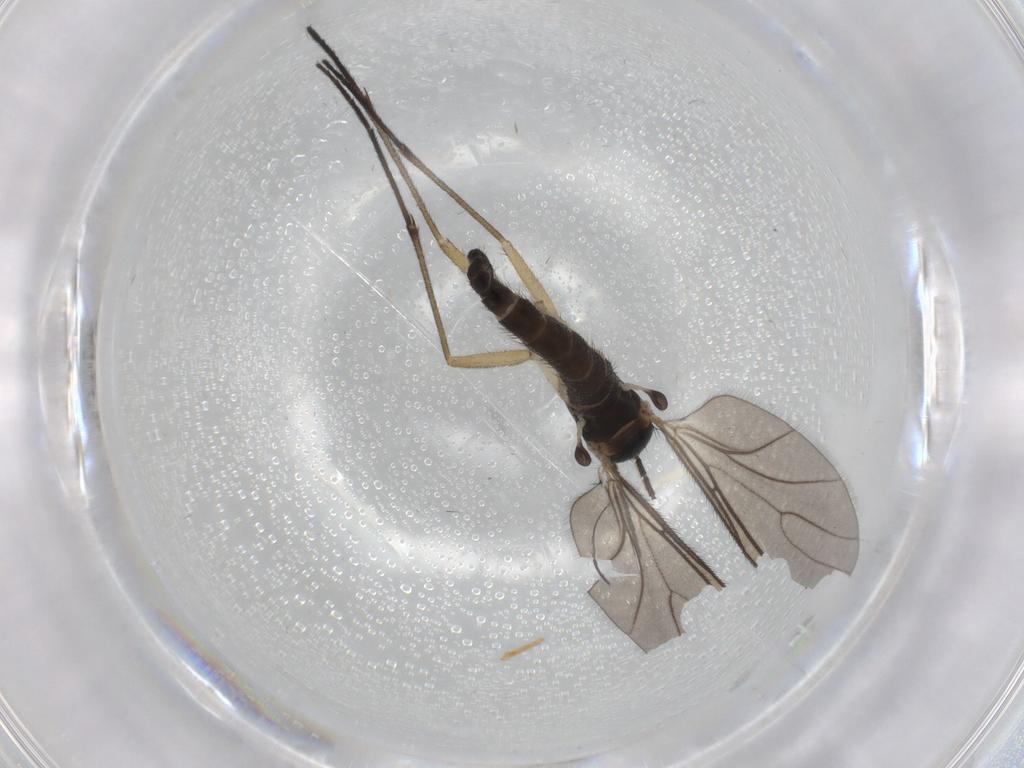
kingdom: Animalia
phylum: Arthropoda
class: Insecta
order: Diptera
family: Sciaridae
